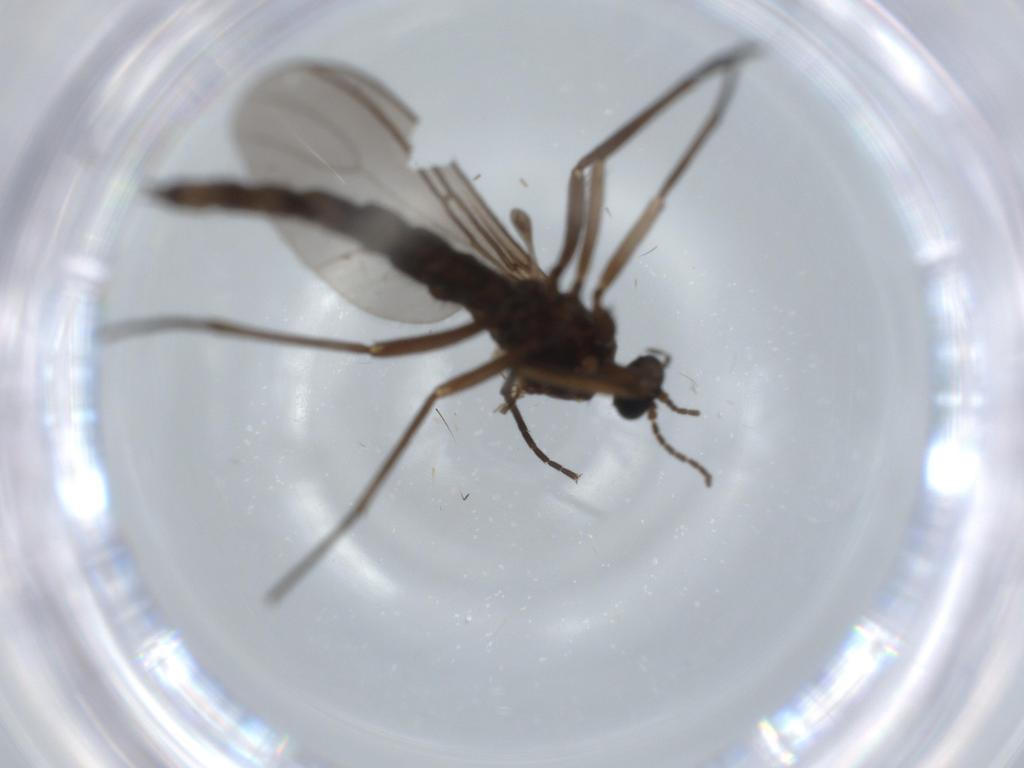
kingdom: Animalia
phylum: Arthropoda
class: Insecta
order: Diptera
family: Sciaridae
